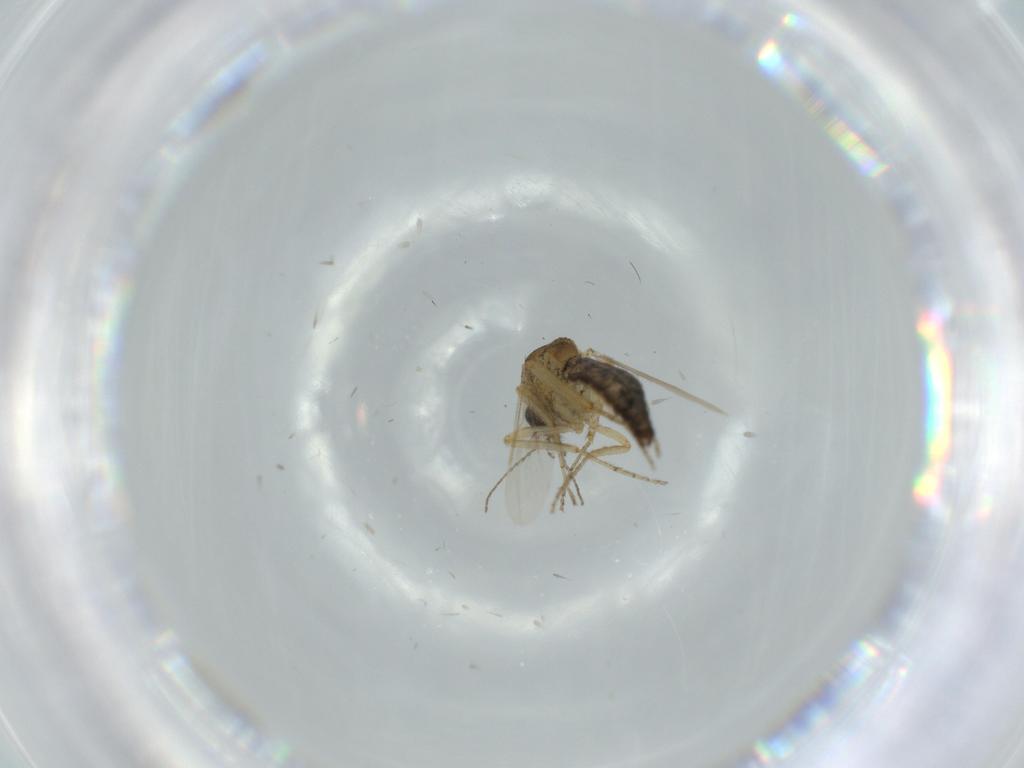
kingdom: Animalia
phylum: Arthropoda
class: Insecta
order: Diptera
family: Ceratopogonidae
